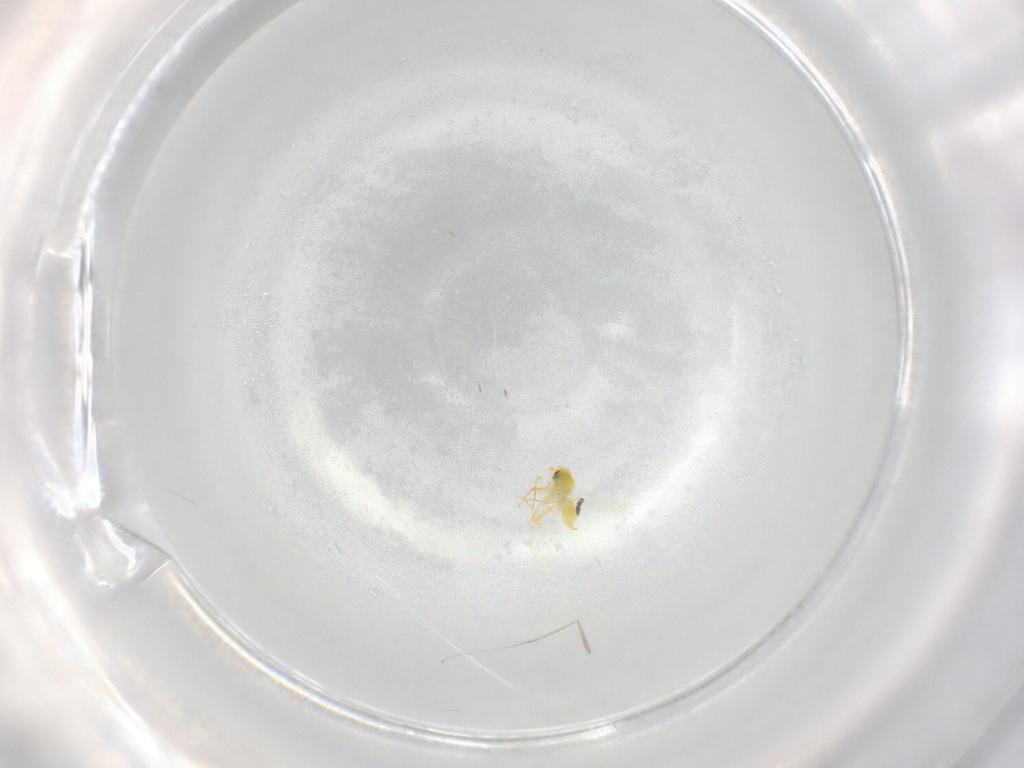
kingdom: Animalia
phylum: Arthropoda
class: Insecta
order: Hemiptera
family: Aleyrodidae
